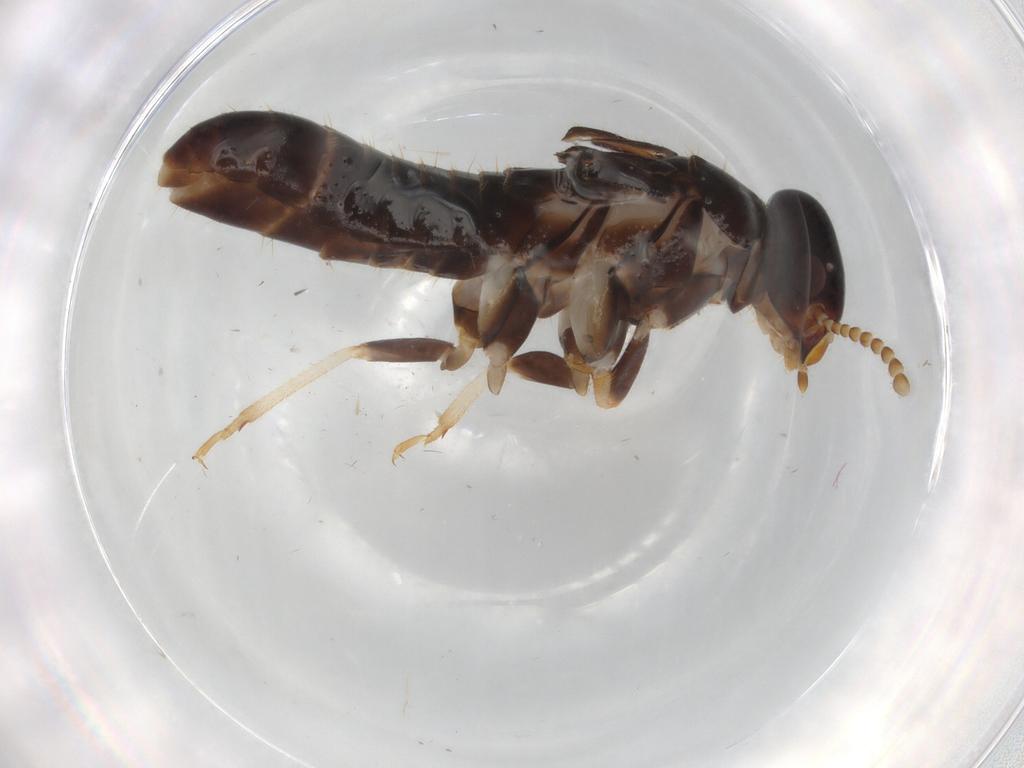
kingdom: Animalia
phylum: Arthropoda
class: Insecta
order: Blattodea
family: Kalotermitidae
